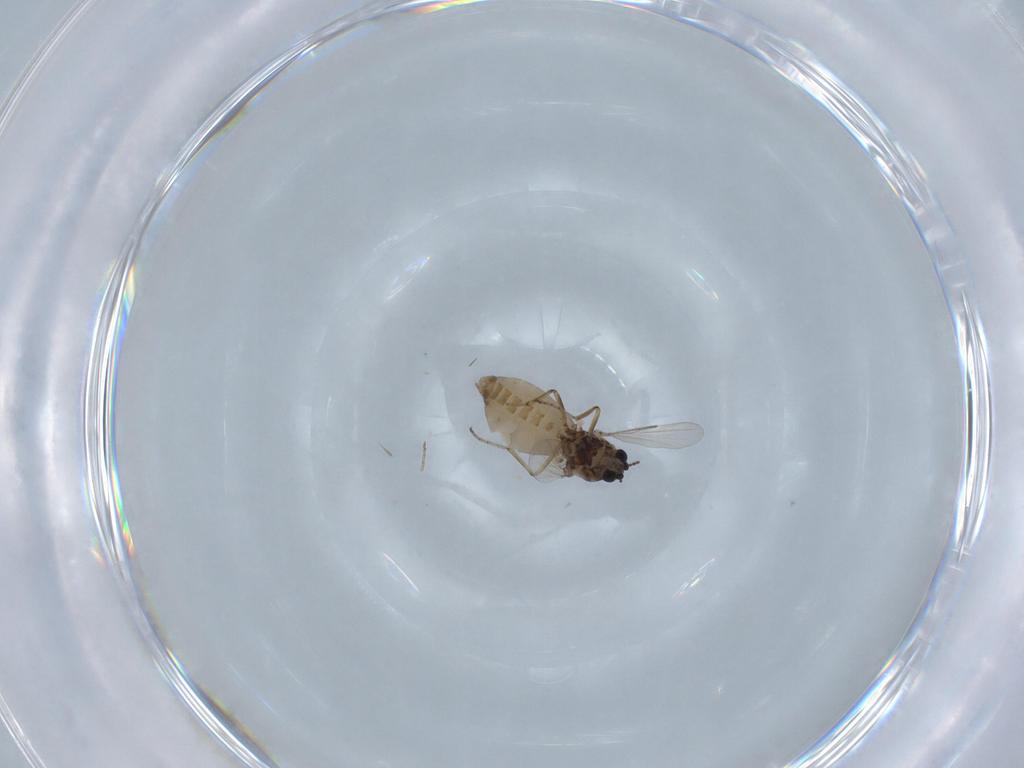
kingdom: Animalia
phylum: Arthropoda
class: Insecta
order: Diptera
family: Ceratopogonidae
